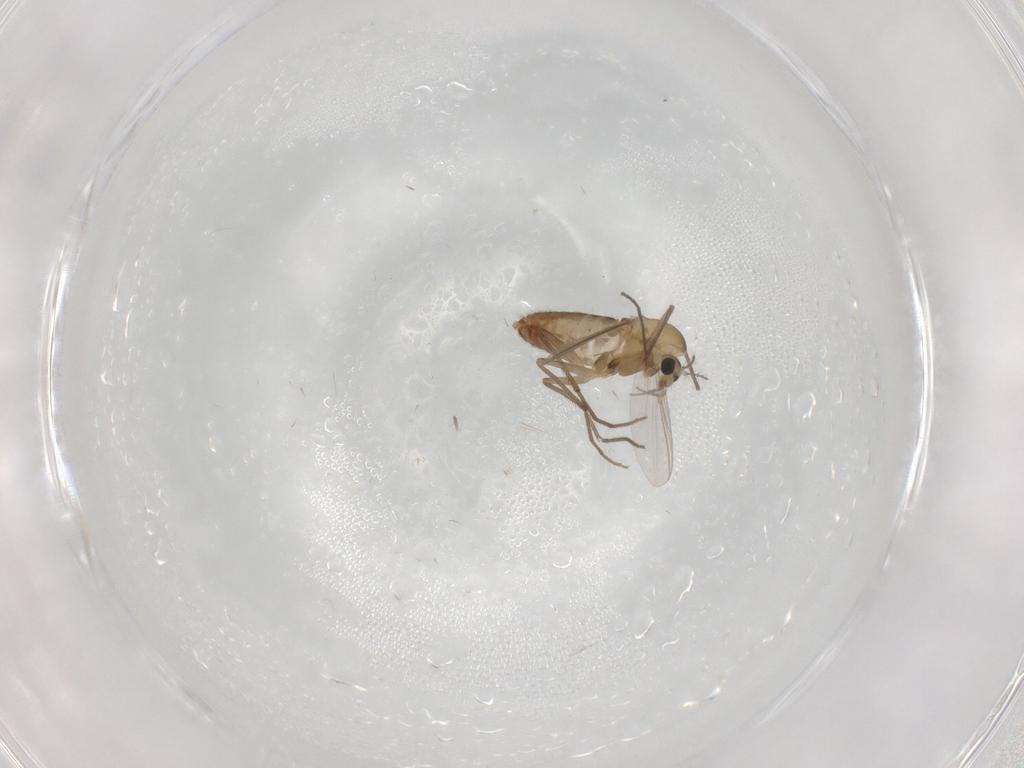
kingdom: Animalia
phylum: Arthropoda
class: Insecta
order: Diptera
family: Chironomidae
